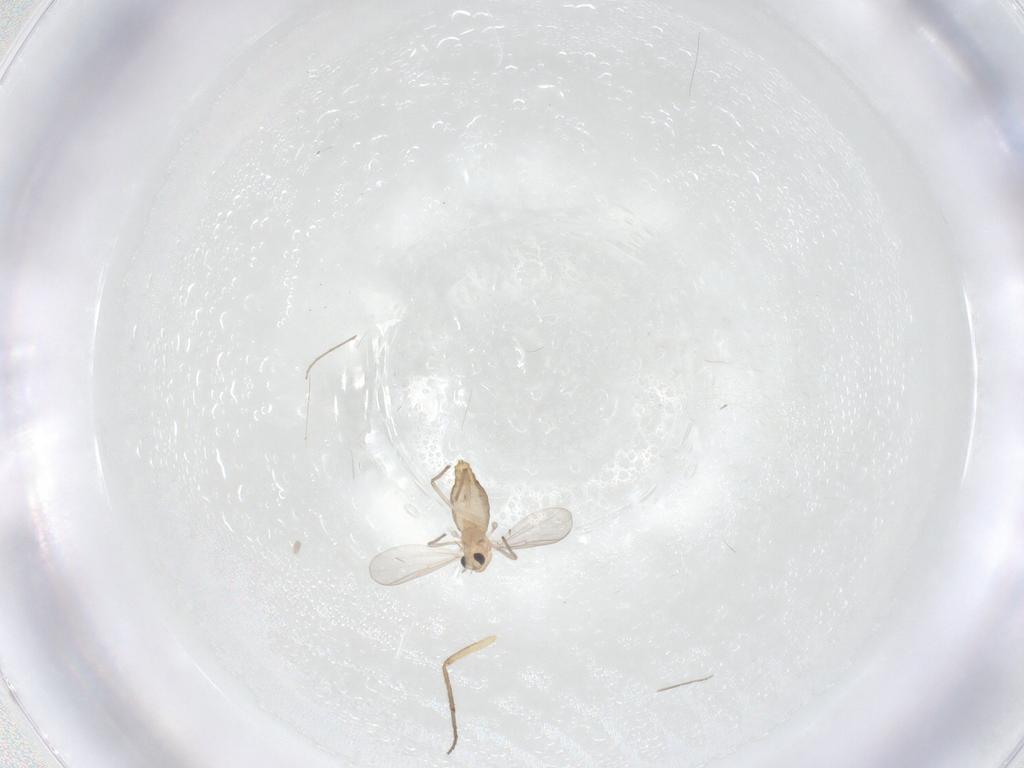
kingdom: Animalia
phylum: Arthropoda
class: Insecta
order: Diptera
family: Chironomidae
